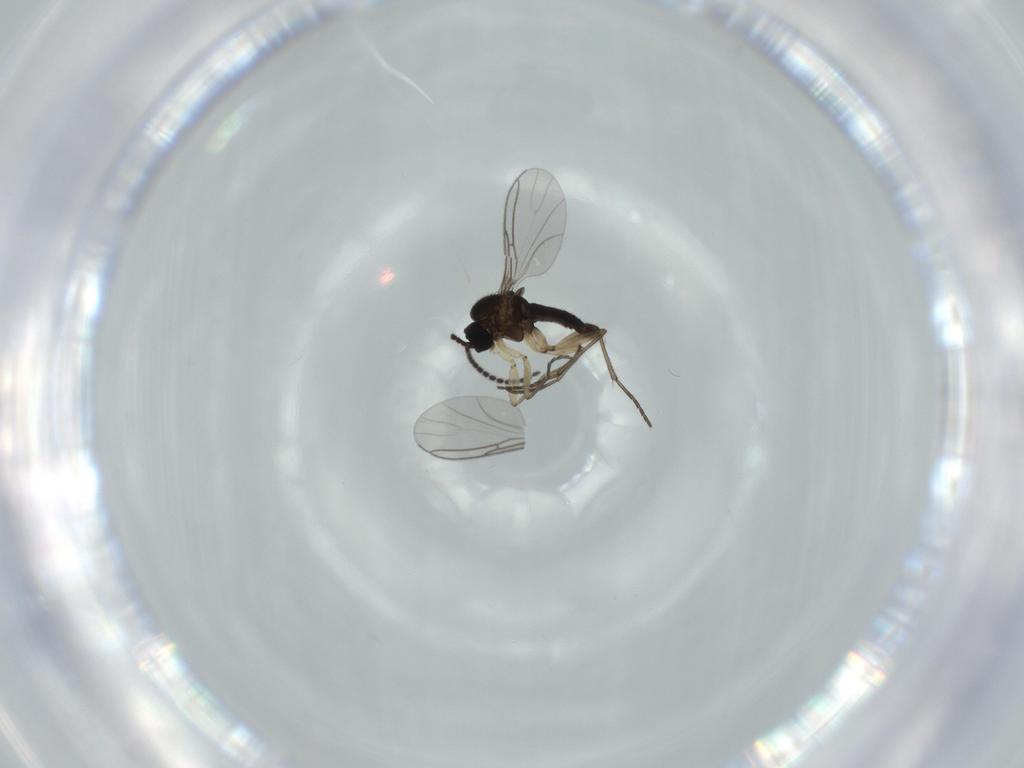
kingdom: Animalia
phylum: Arthropoda
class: Insecta
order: Diptera
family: Sciaridae
